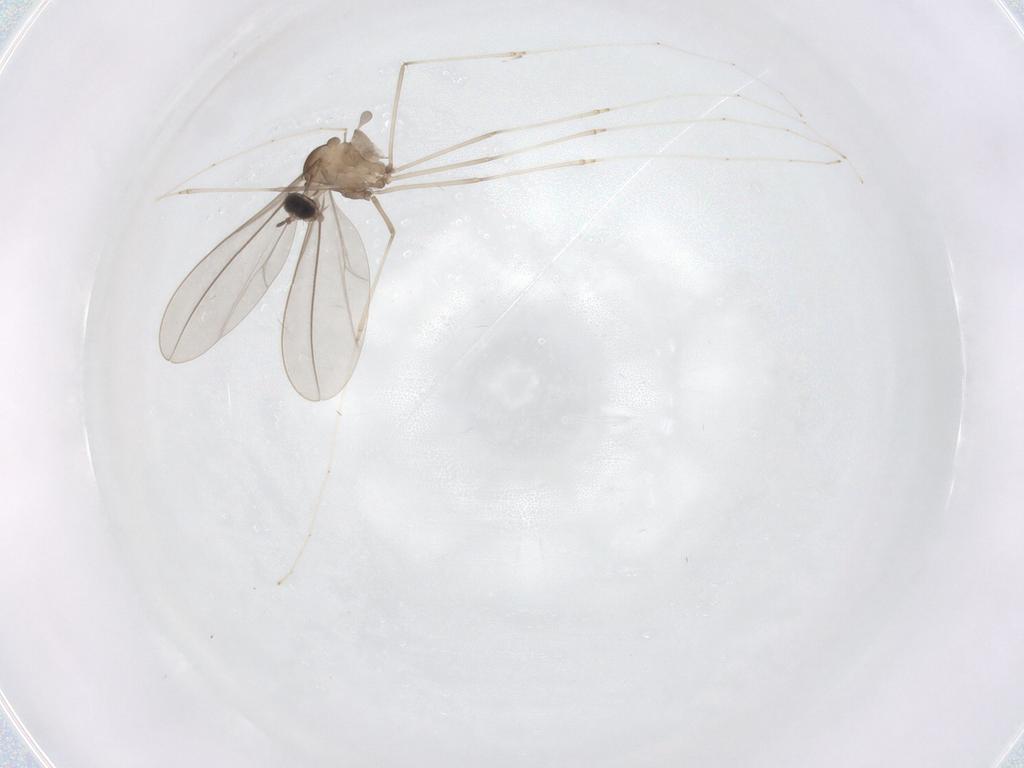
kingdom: Animalia
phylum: Arthropoda
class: Insecta
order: Diptera
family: Cecidomyiidae
